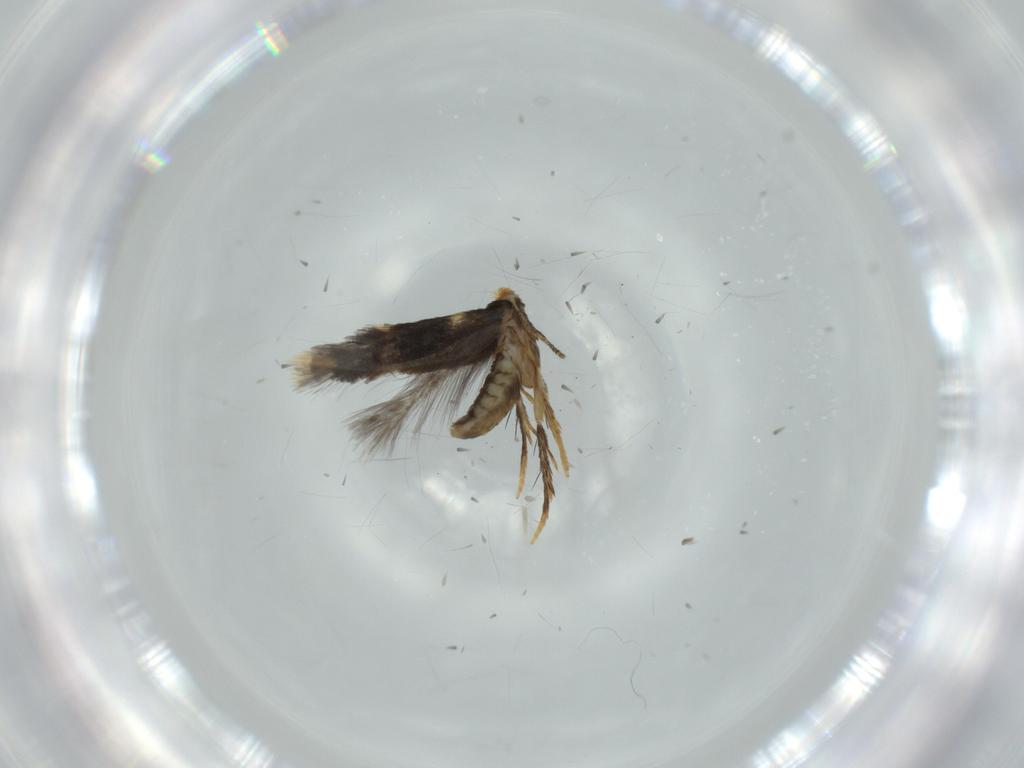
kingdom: Animalia
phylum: Arthropoda
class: Insecta
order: Lepidoptera
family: Nepticulidae
